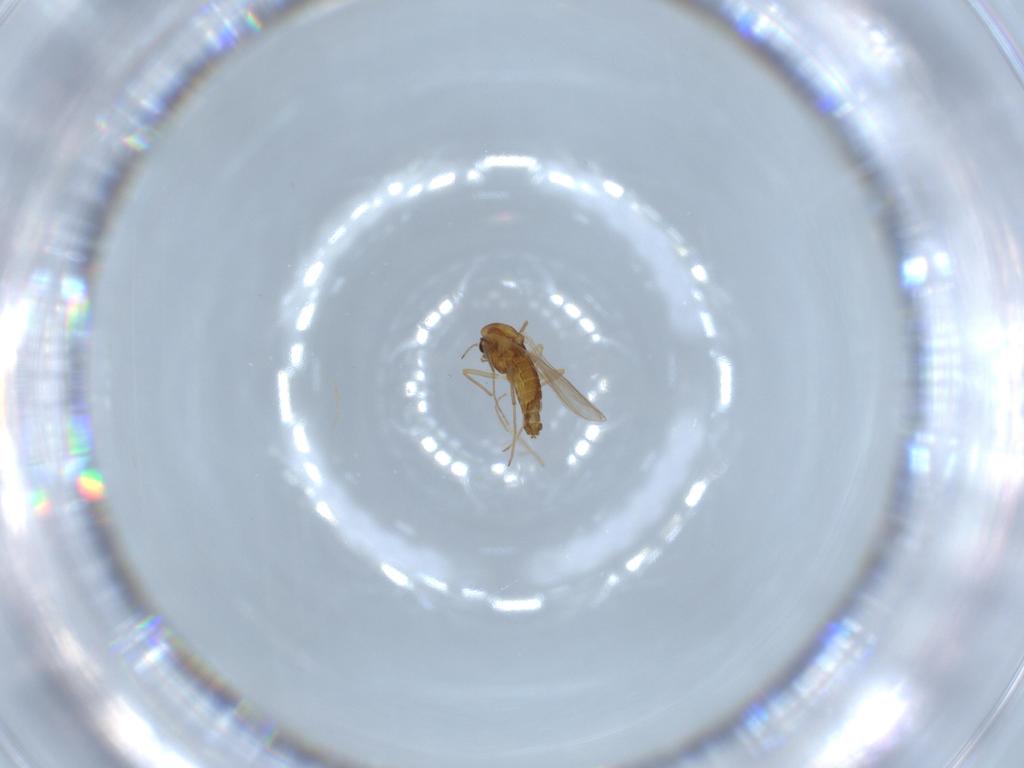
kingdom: Animalia
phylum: Arthropoda
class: Insecta
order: Diptera
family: Chironomidae
